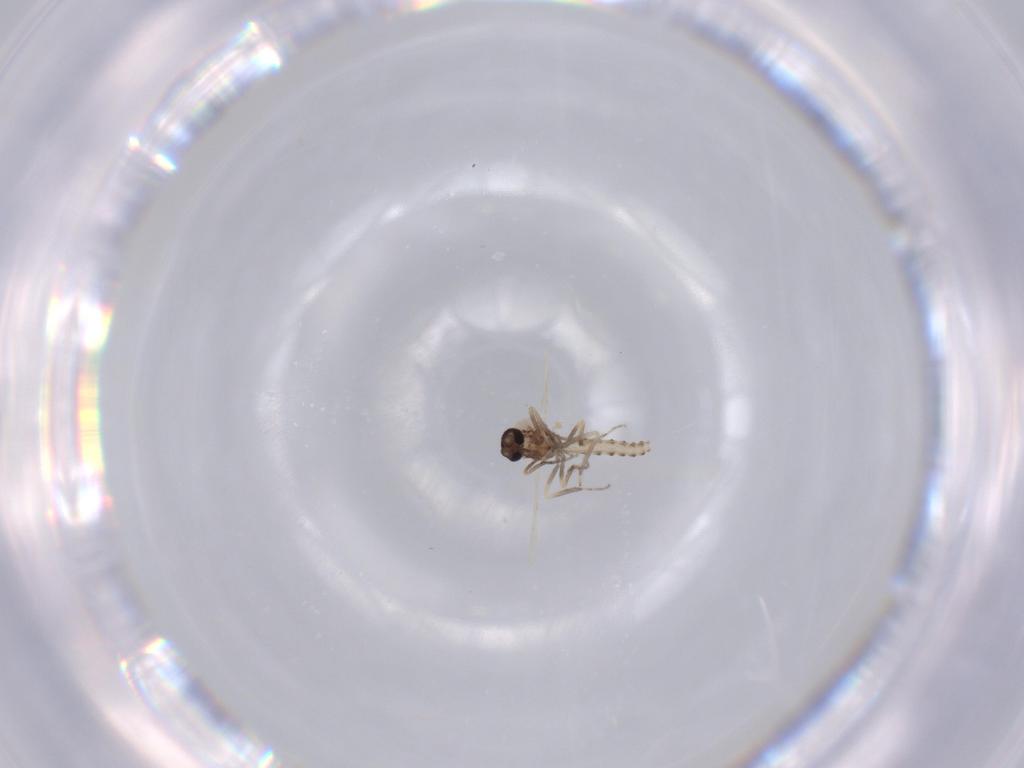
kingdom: Animalia
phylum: Arthropoda
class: Insecta
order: Diptera
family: Ceratopogonidae
